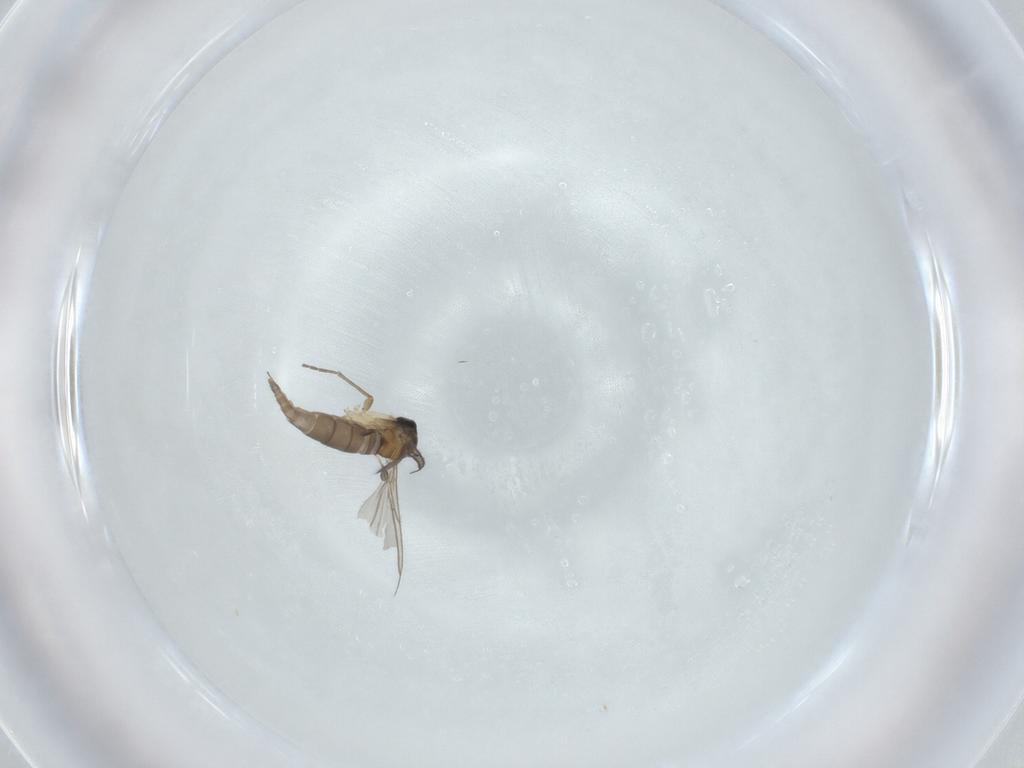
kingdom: Animalia
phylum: Arthropoda
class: Insecta
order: Diptera
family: Sciaridae
